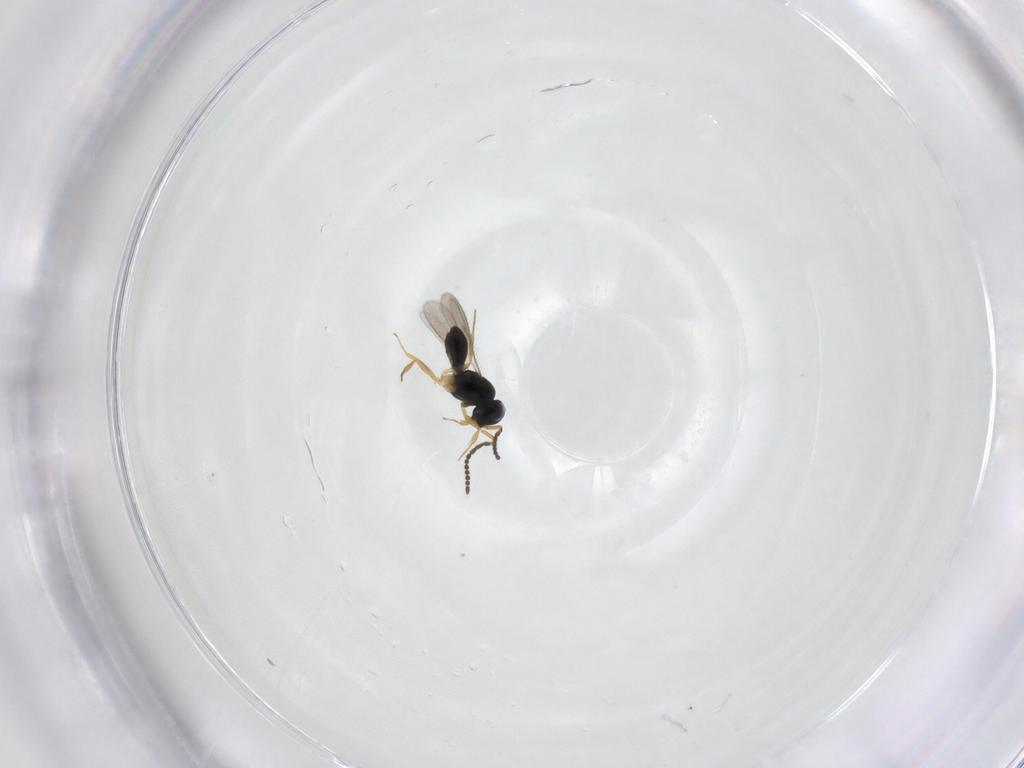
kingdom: Animalia
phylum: Arthropoda
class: Insecta
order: Hymenoptera
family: Scelionidae
